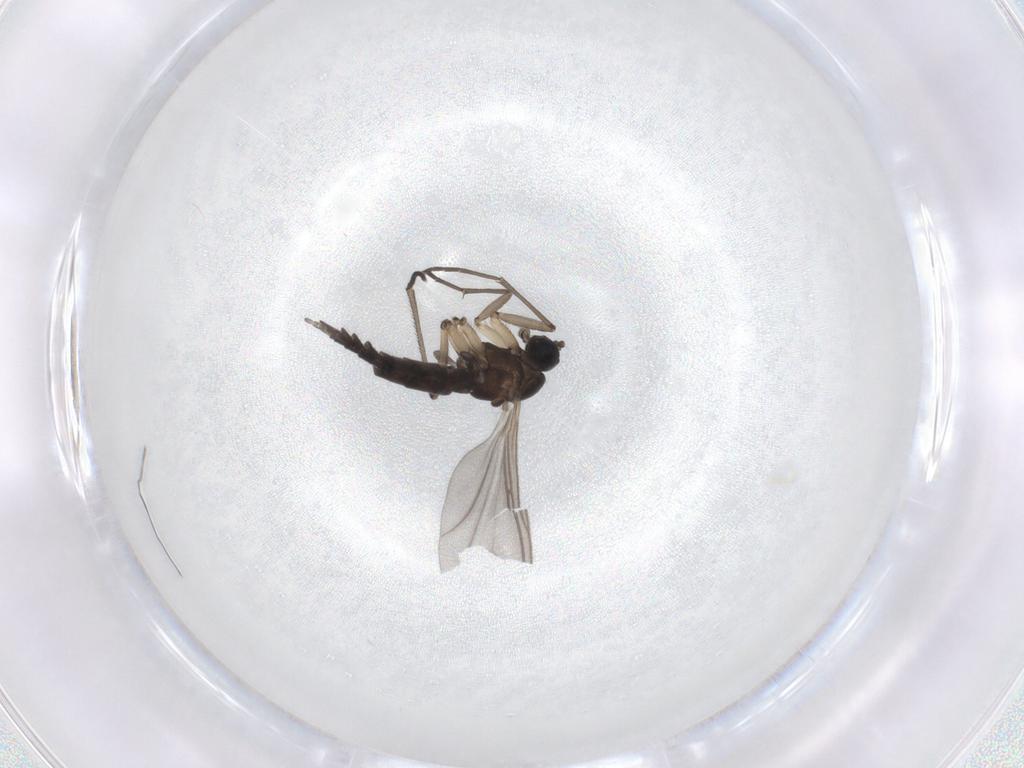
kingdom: Animalia
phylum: Arthropoda
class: Insecta
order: Diptera
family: Sciaridae
